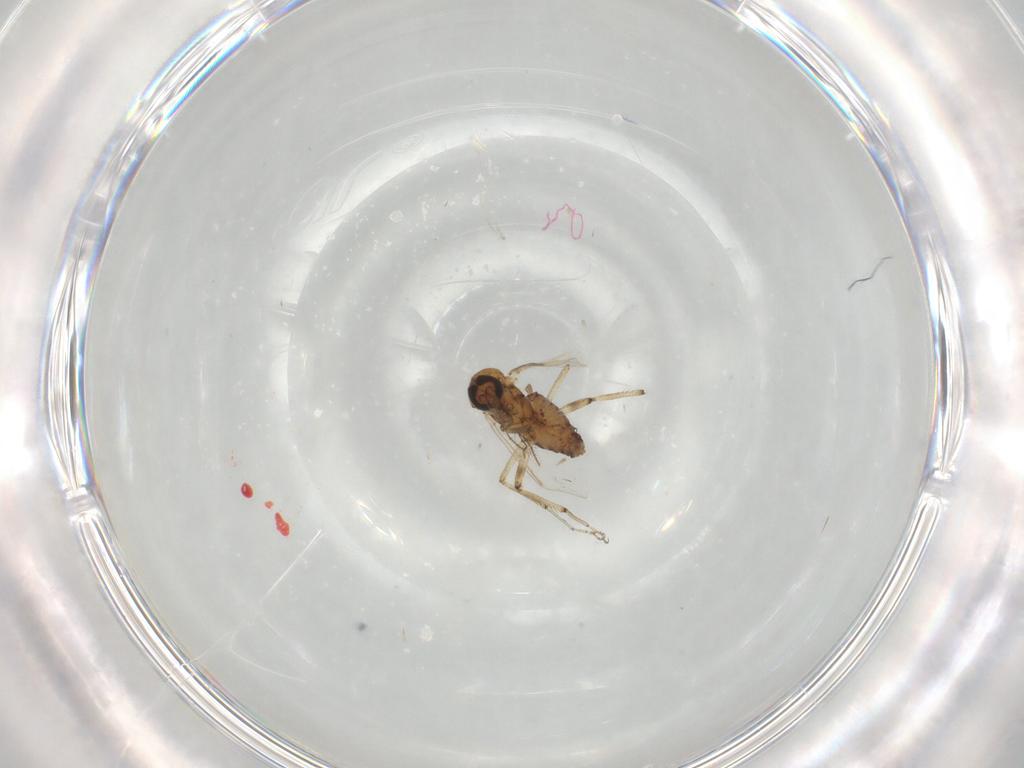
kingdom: Animalia
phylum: Arthropoda
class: Insecta
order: Diptera
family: Ceratopogonidae
